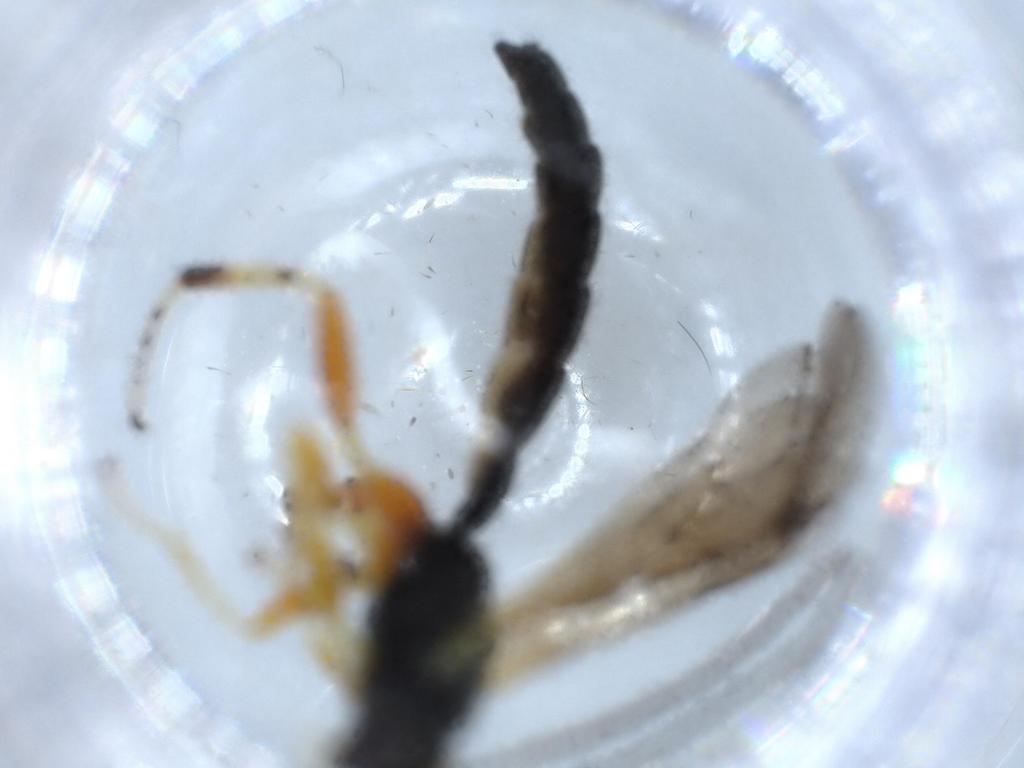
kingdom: Animalia
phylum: Arthropoda
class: Insecta
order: Hymenoptera
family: Ichneumonidae
